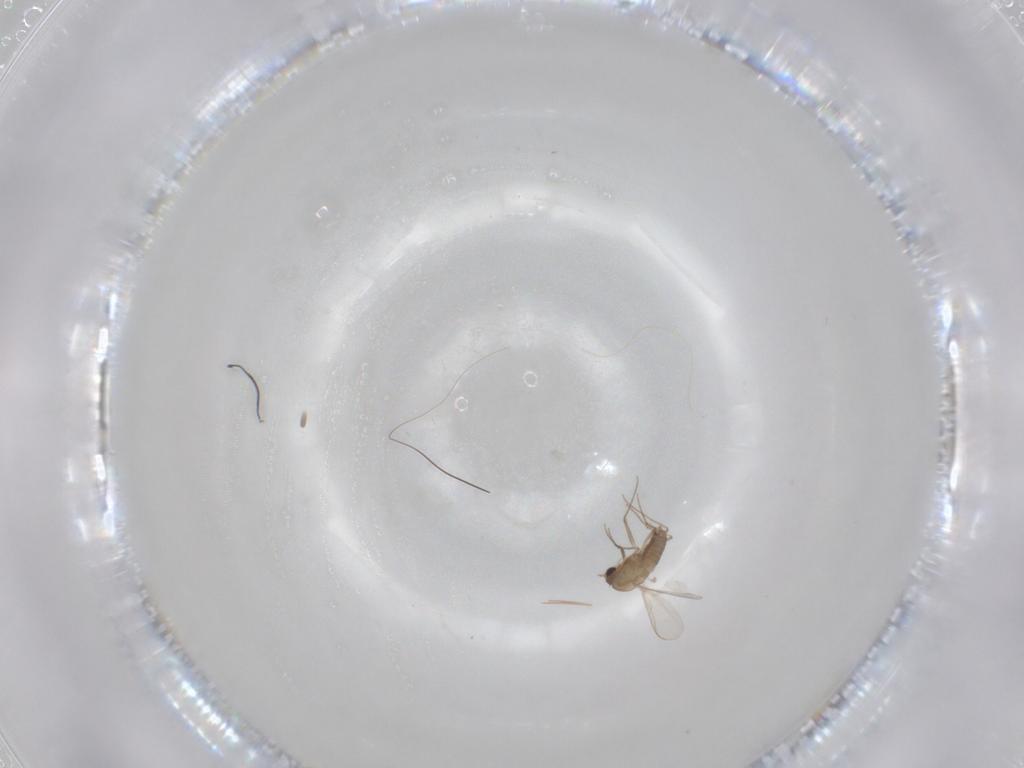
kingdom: Animalia
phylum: Arthropoda
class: Insecta
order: Diptera
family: Chironomidae
